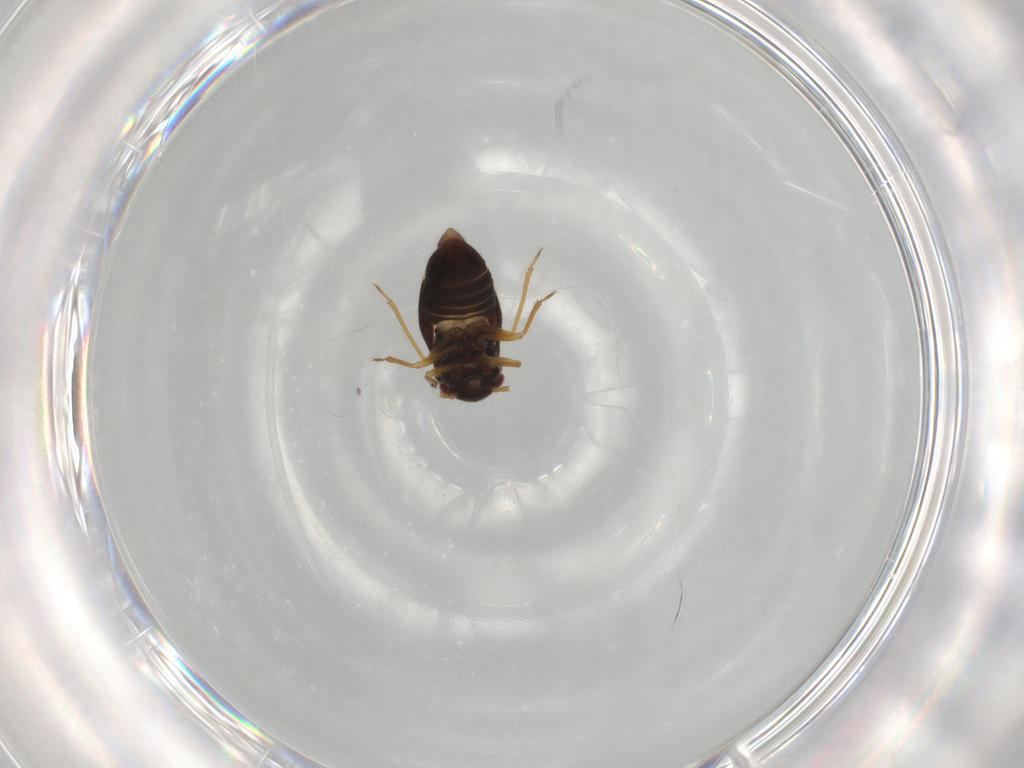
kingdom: Animalia
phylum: Arthropoda
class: Insecta
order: Hemiptera
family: Schizopteridae
